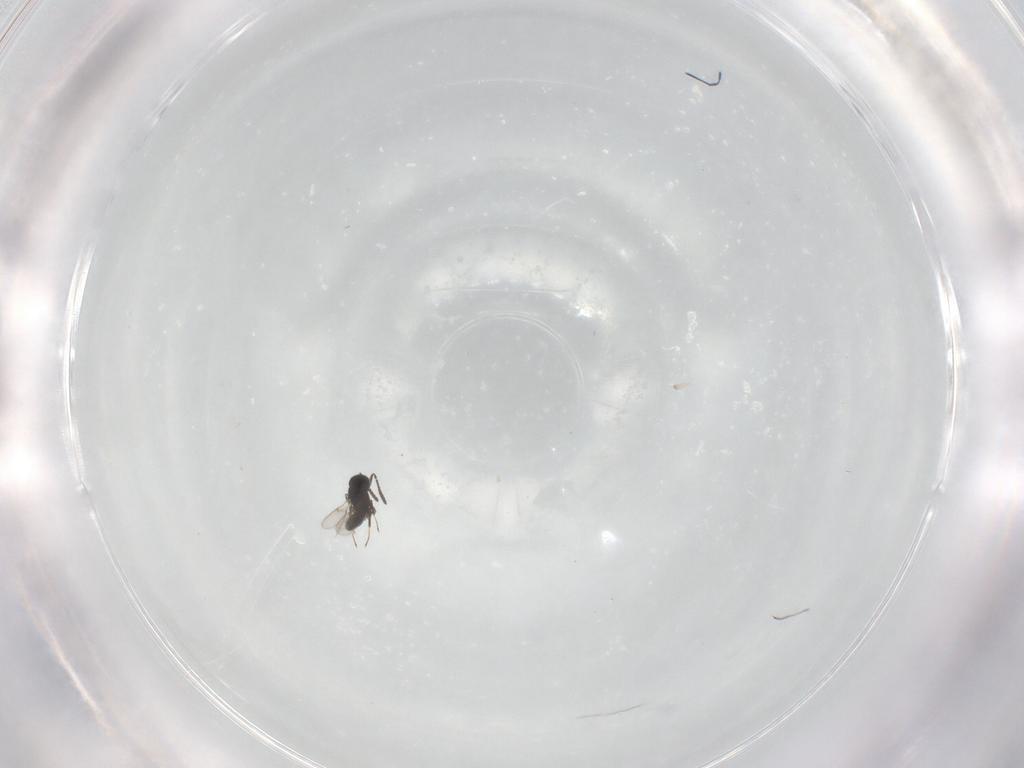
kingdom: Animalia
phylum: Arthropoda
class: Insecta
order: Hymenoptera
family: Scelionidae
